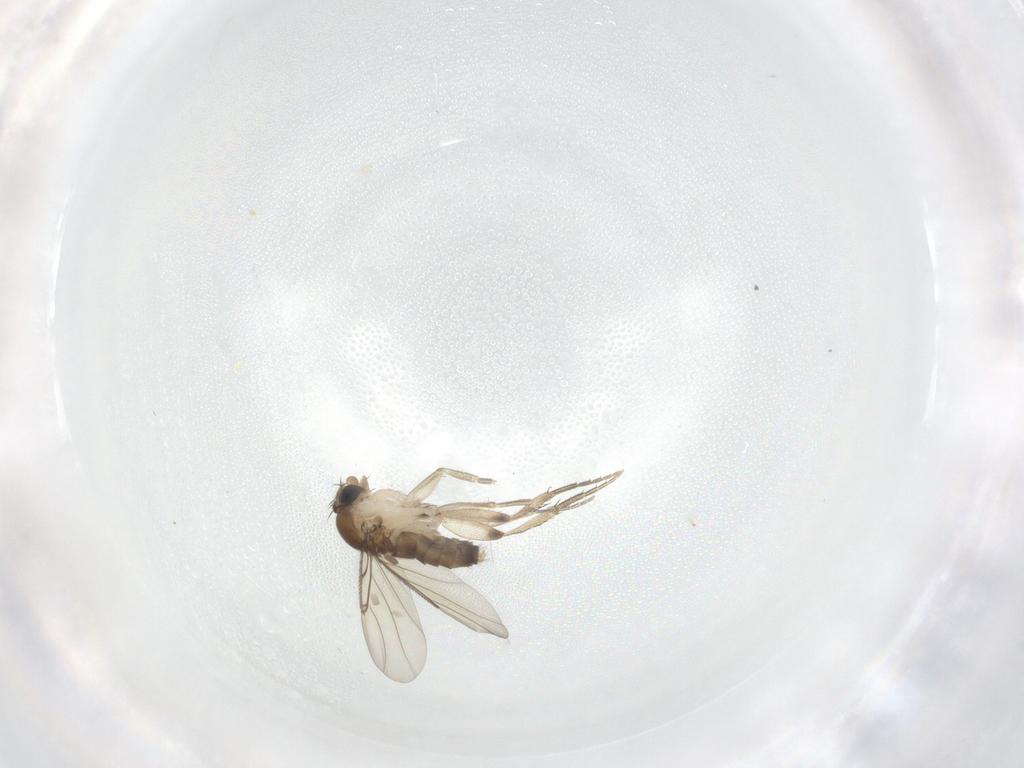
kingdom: Animalia
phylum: Arthropoda
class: Insecta
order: Diptera
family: Phoridae
